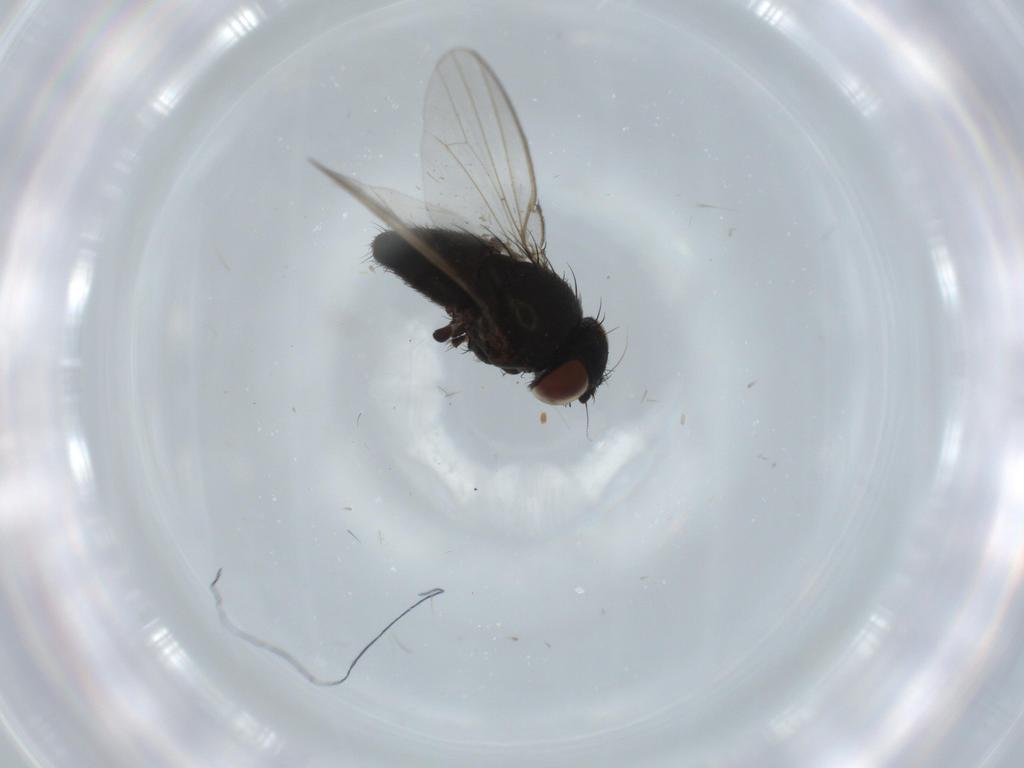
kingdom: Animalia
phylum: Arthropoda
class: Insecta
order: Diptera
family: Milichiidae
